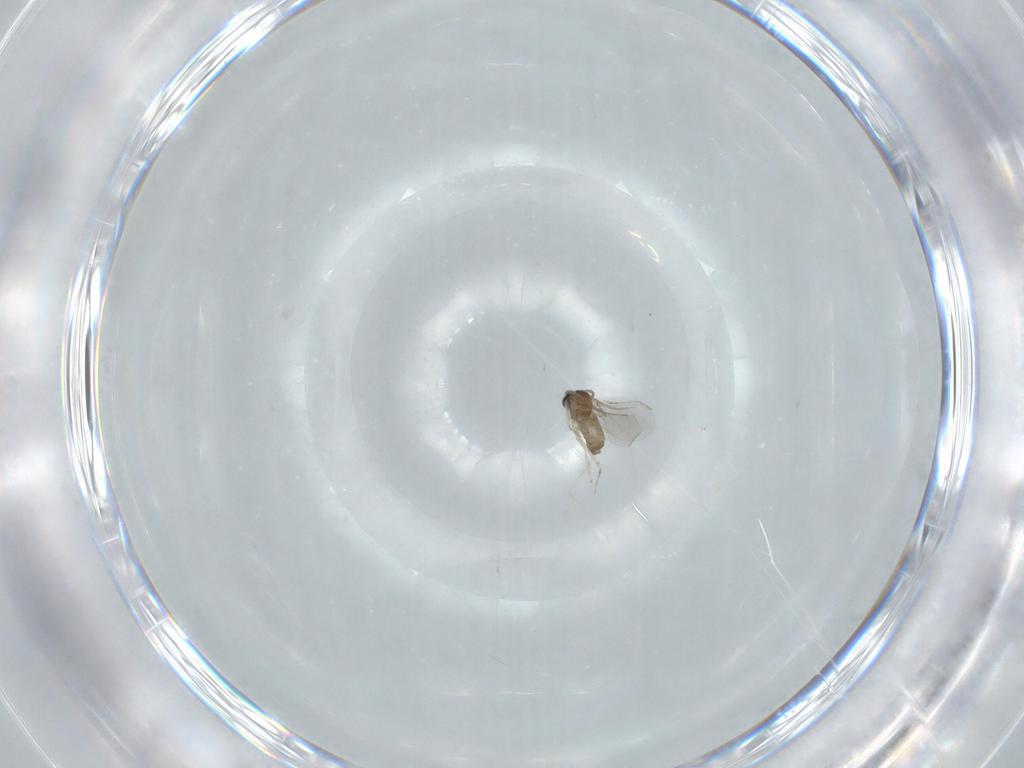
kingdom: Animalia
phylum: Arthropoda
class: Insecta
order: Diptera
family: Cecidomyiidae
